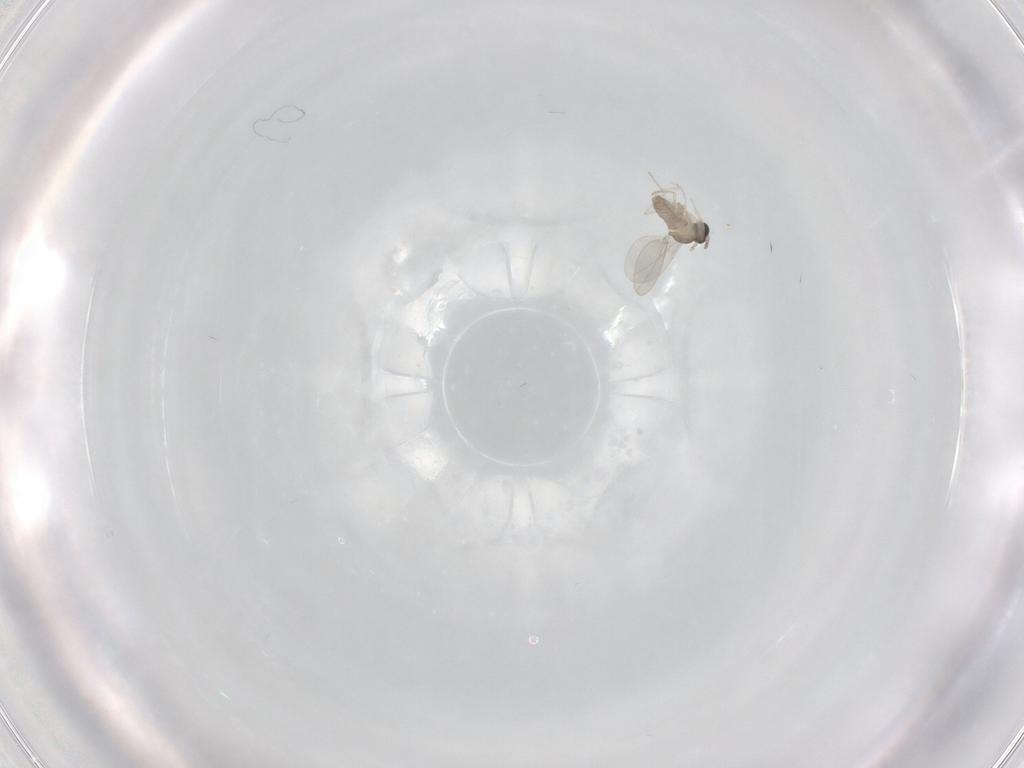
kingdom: Animalia
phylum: Arthropoda
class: Insecta
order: Diptera
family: Cecidomyiidae
